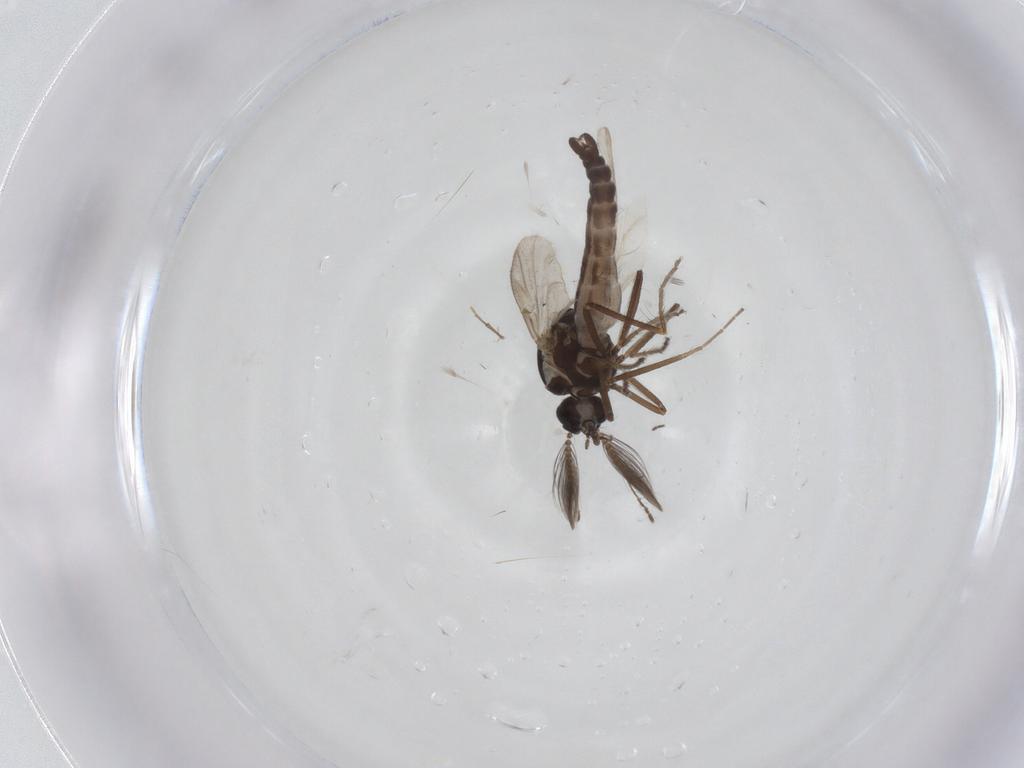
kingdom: Animalia
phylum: Arthropoda
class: Insecta
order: Diptera
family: Ceratopogonidae
